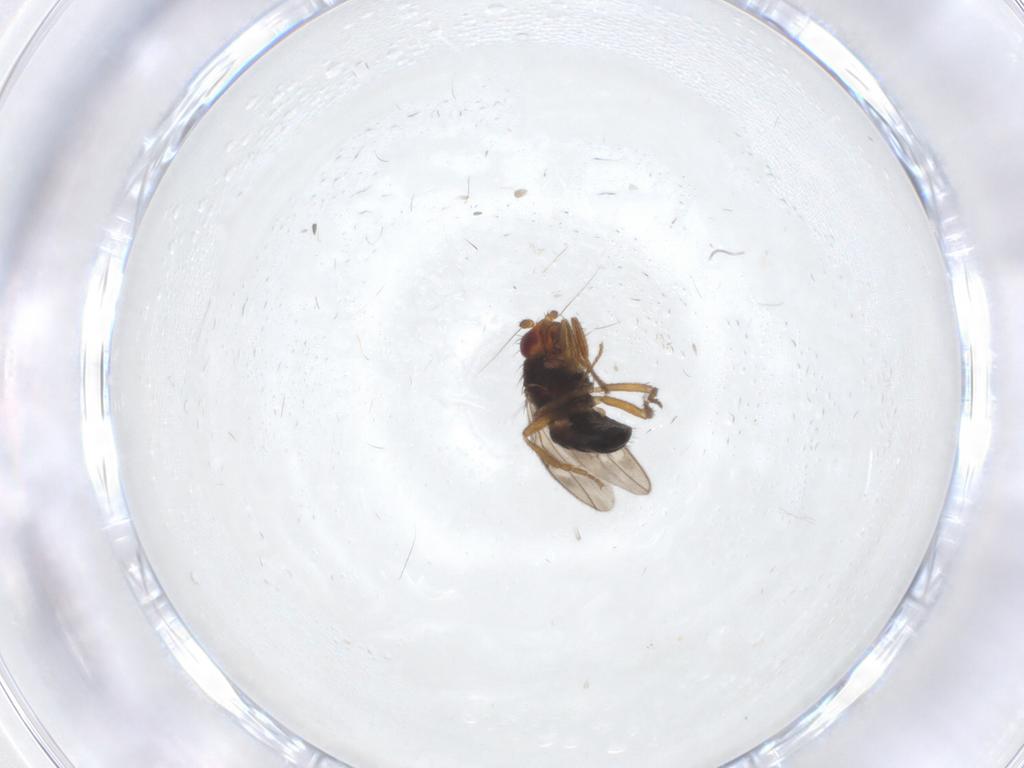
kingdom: Animalia
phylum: Arthropoda
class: Insecta
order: Diptera
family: Sphaeroceridae
